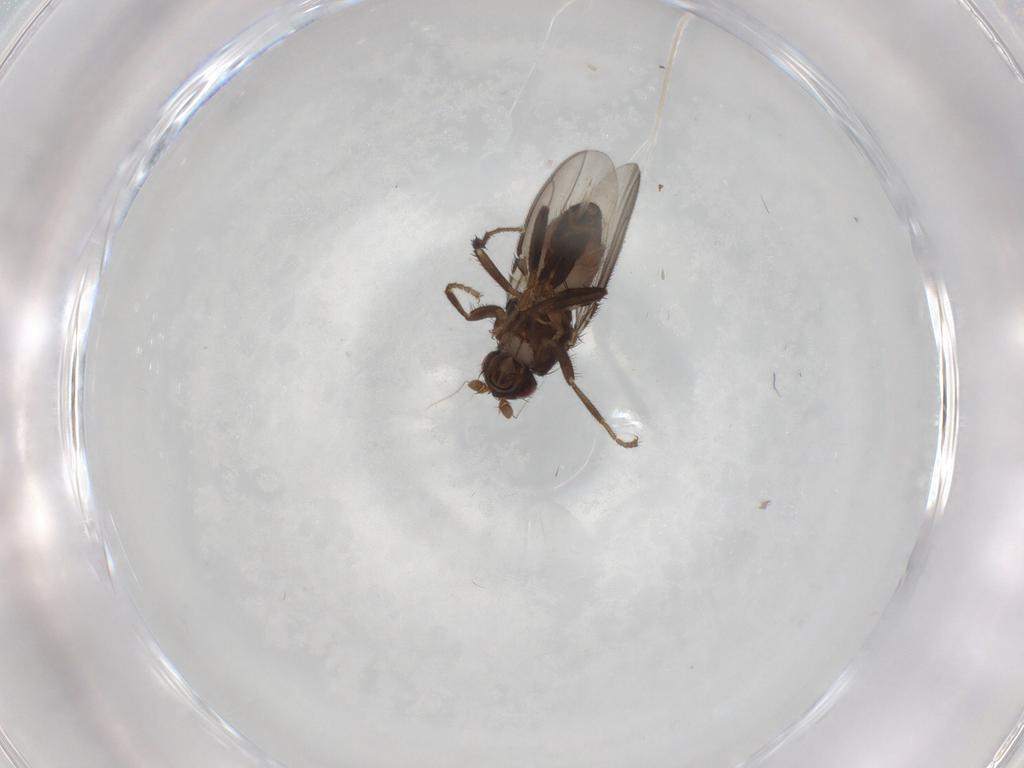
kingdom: Animalia
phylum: Arthropoda
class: Insecta
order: Diptera
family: Sphaeroceridae
